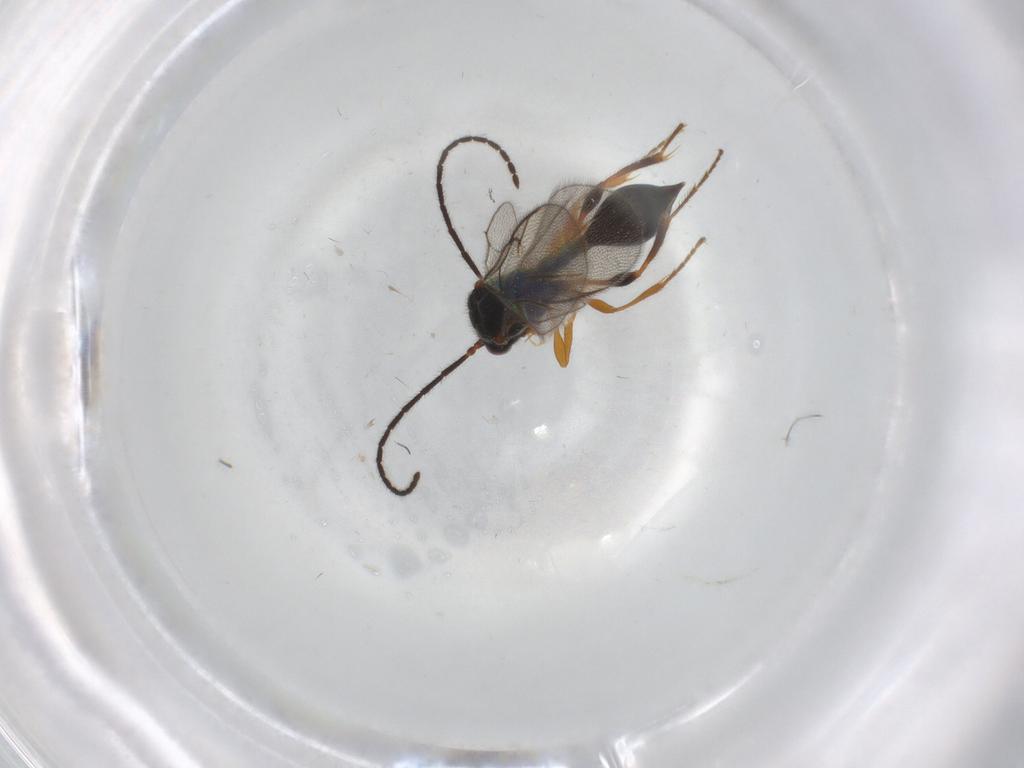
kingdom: Animalia
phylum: Arthropoda
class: Insecta
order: Hymenoptera
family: Diapriidae
